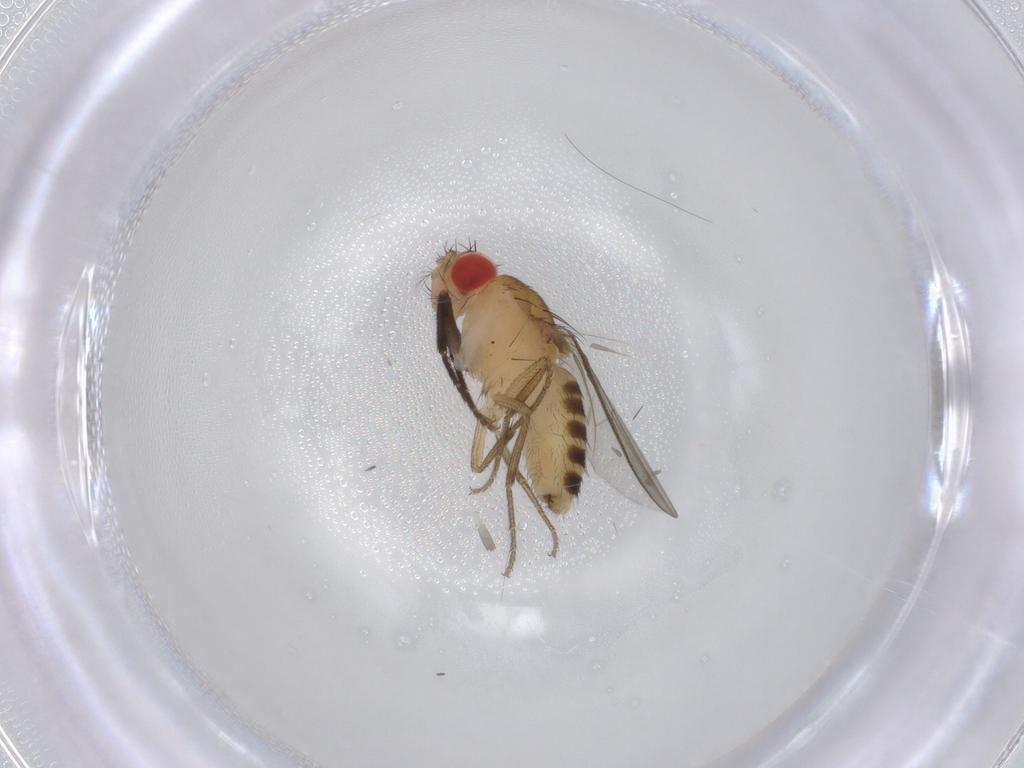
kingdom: Animalia
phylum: Arthropoda
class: Insecta
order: Diptera
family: Drosophilidae
